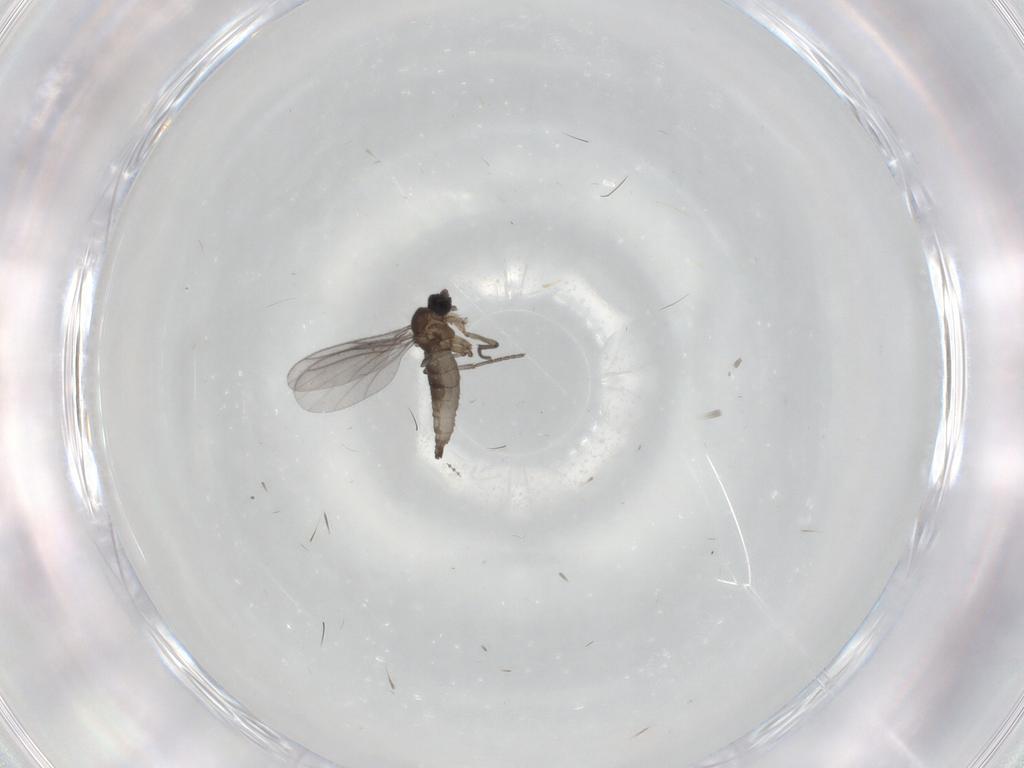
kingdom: Animalia
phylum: Arthropoda
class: Insecta
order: Diptera
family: Chironomidae
